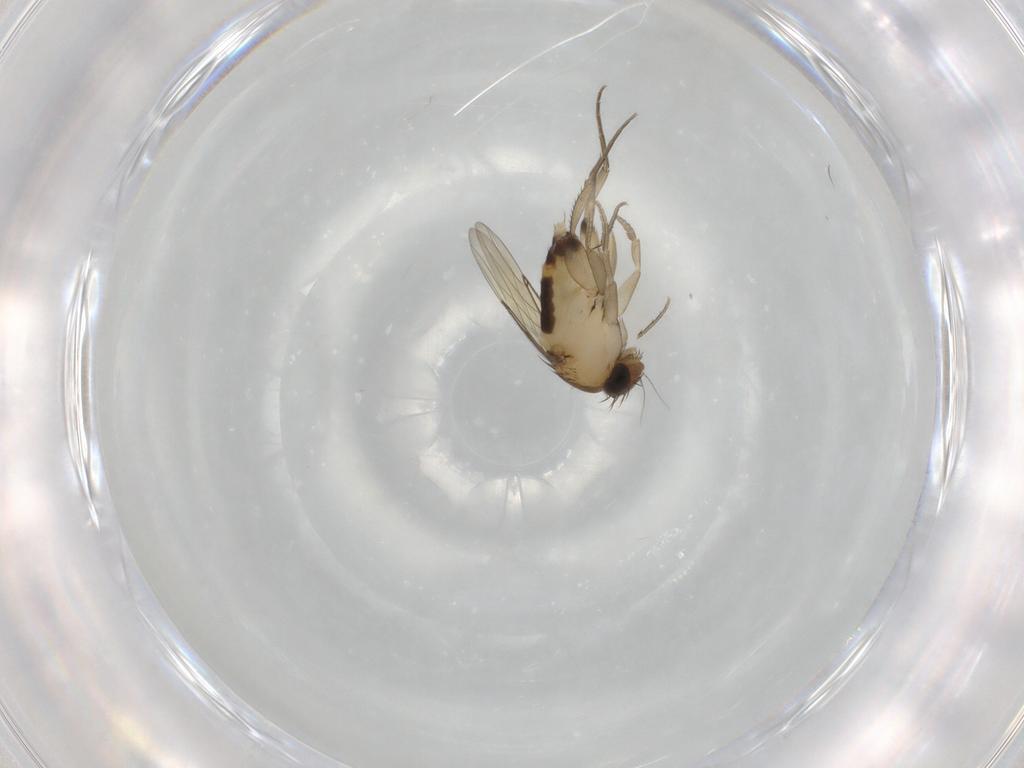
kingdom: Animalia
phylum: Arthropoda
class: Insecta
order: Diptera
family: Phoridae
